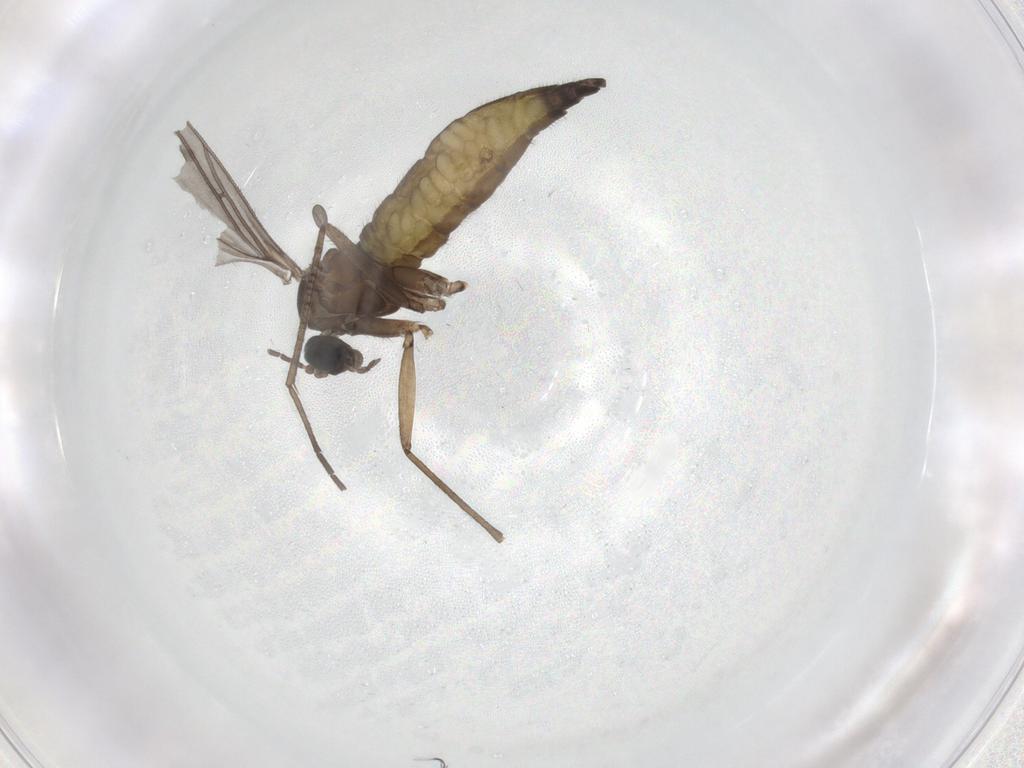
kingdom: Animalia
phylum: Arthropoda
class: Insecta
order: Diptera
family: Sciaridae
